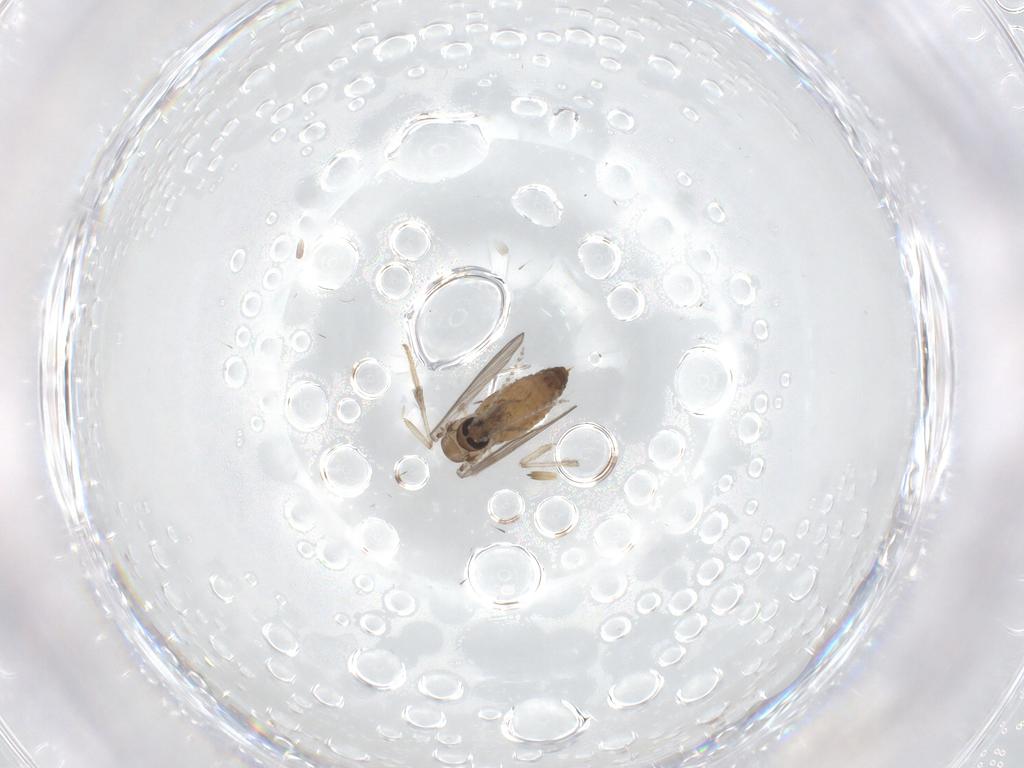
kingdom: Animalia
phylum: Arthropoda
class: Insecta
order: Diptera
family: Psychodidae
